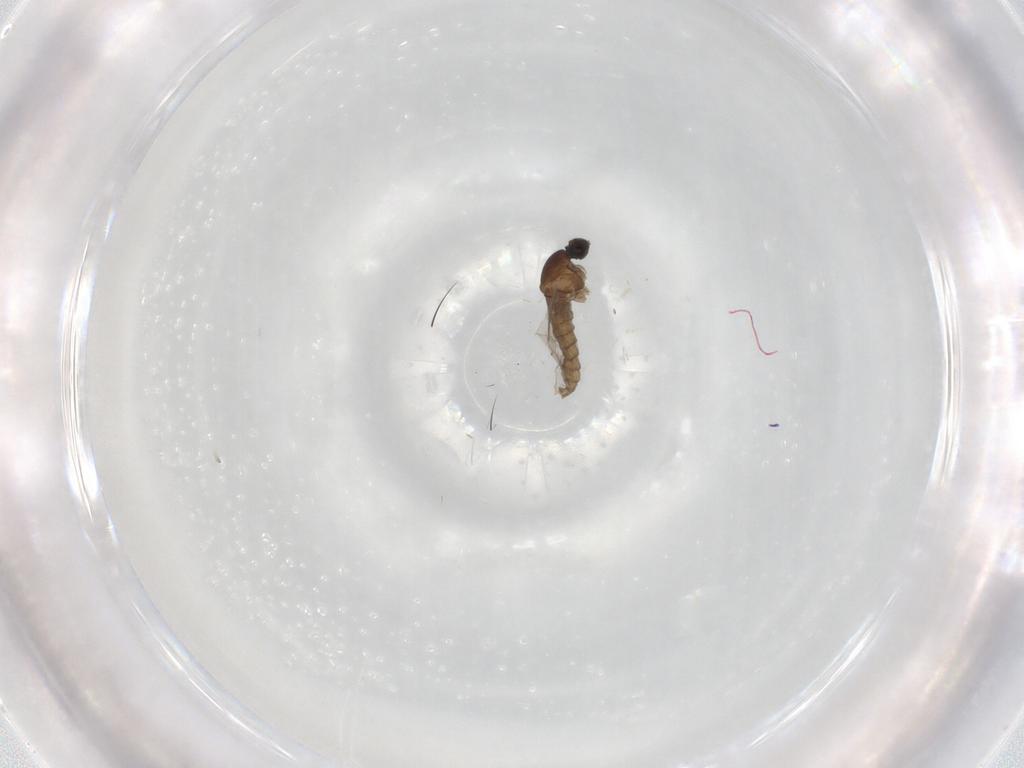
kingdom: Animalia
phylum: Arthropoda
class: Insecta
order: Diptera
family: Cecidomyiidae
